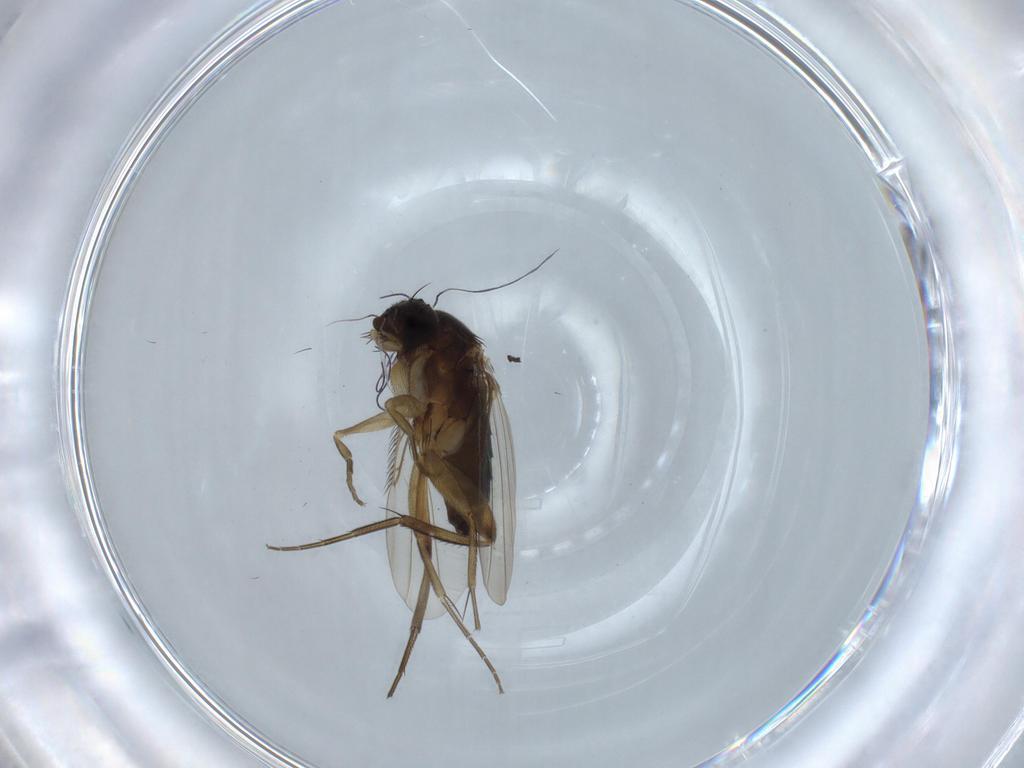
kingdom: Animalia
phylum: Arthropoda
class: Insecta
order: Diptera
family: Phoridae
